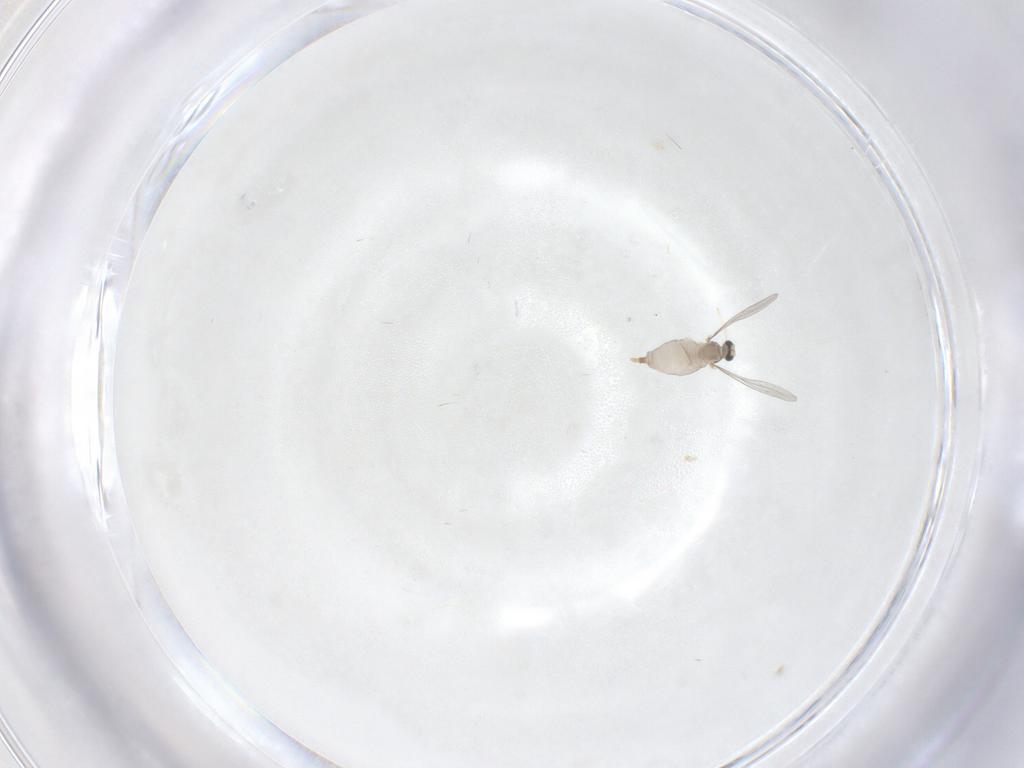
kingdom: Animalia
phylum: Arthropoda
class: Insecta
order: Diptera
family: Cecidomyiidae
